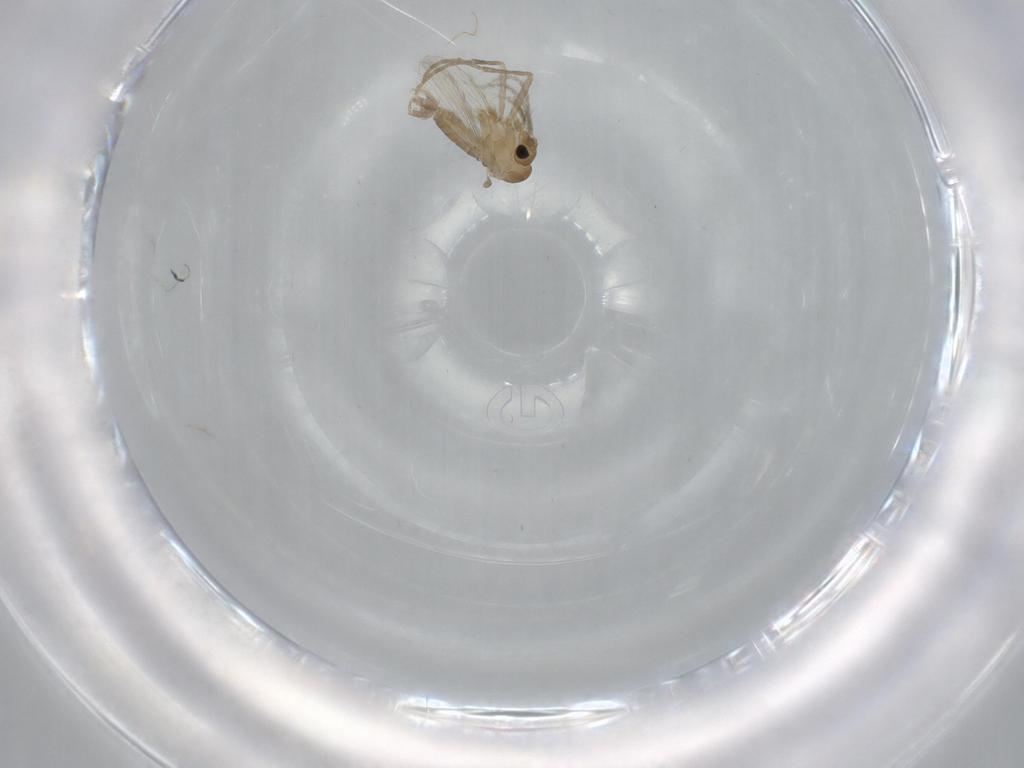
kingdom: Animalia
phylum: Arthropoda
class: Insecta
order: Diptera
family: Psychodidae
